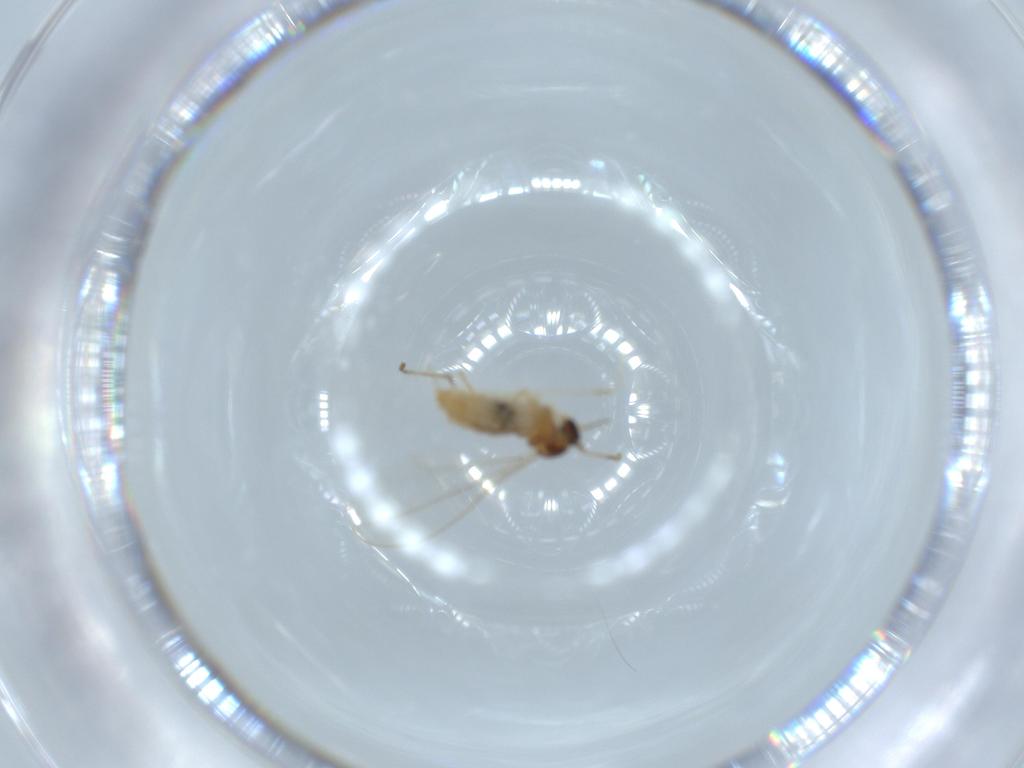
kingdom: Animalia
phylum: Arthropoda
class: Insecta
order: Diptera
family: Cecidomyiidae
